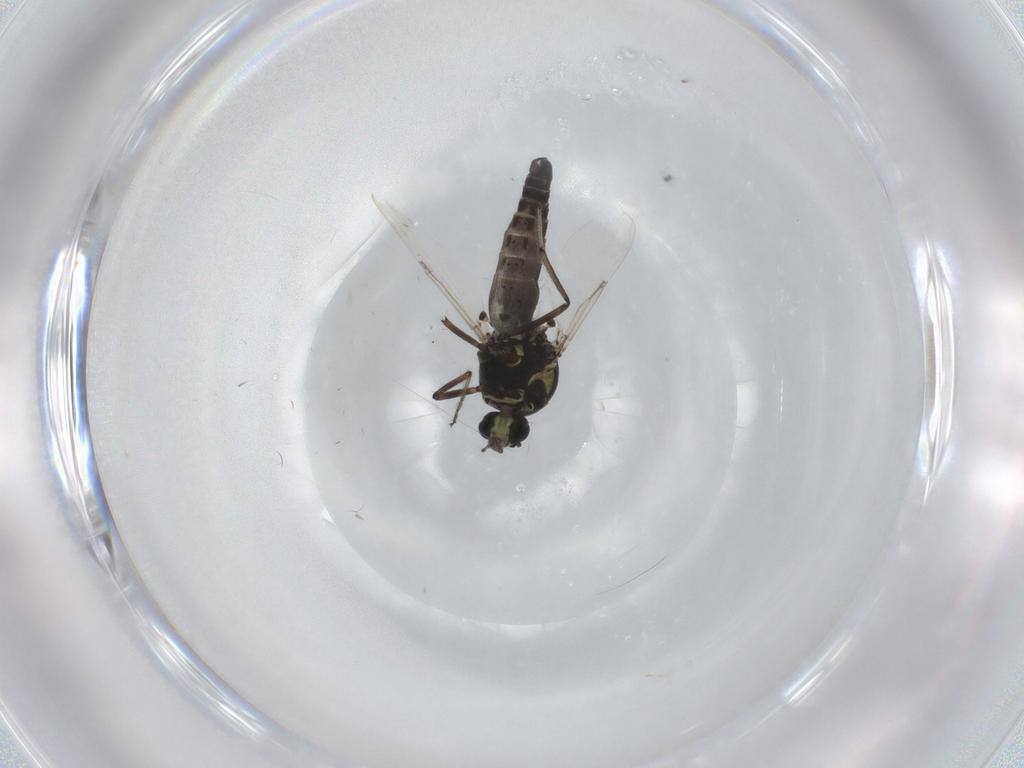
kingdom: Animalia
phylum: Arthropoda
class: Insecta
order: Diptera
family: Ceratopogonidae
